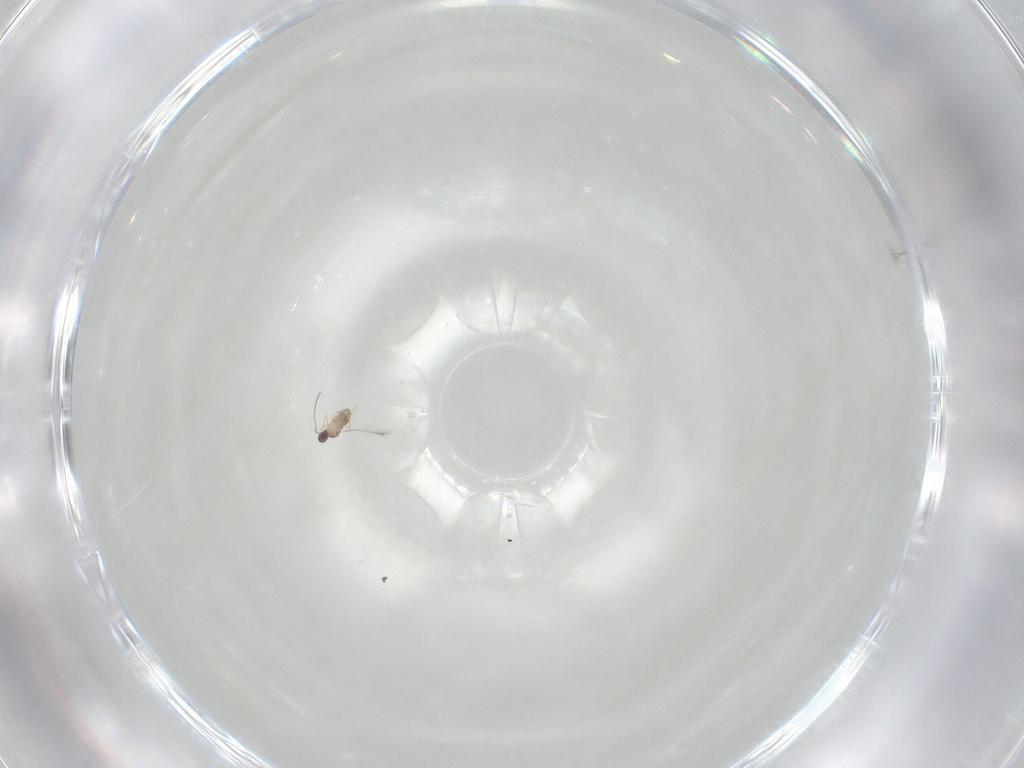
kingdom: Animalia
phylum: Arthropoda
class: Insecta
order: Hymenoptera
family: Mymaridae
